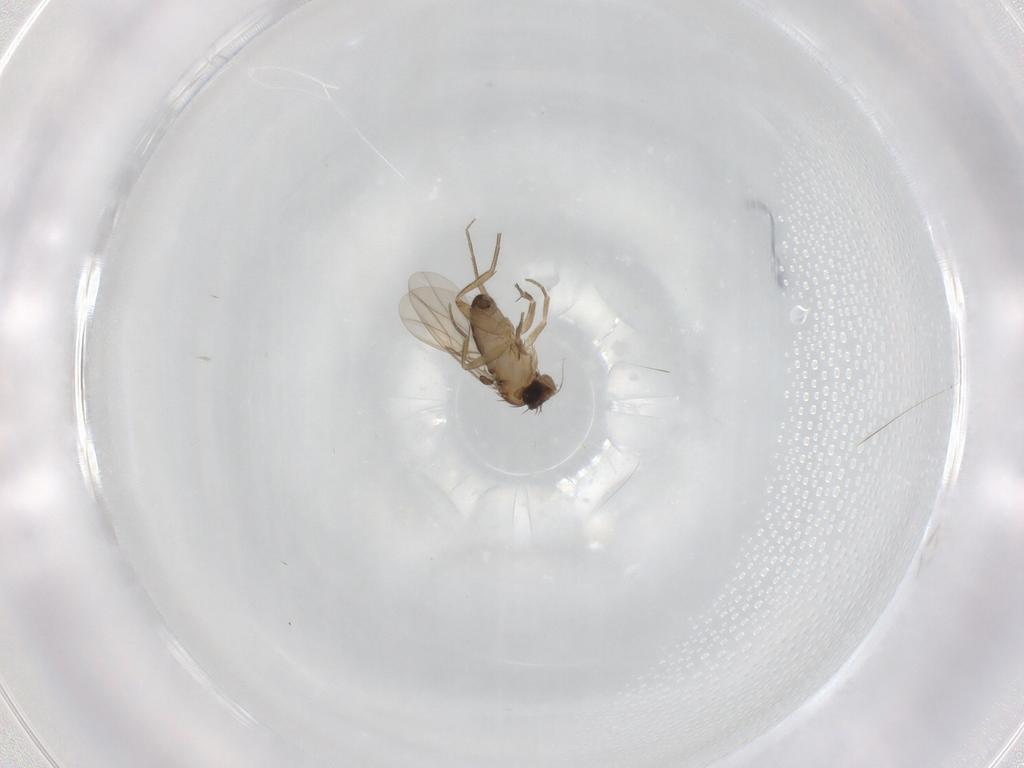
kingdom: Animalia
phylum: Arthropoda
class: Insecta
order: Diptera
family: Phoridae
